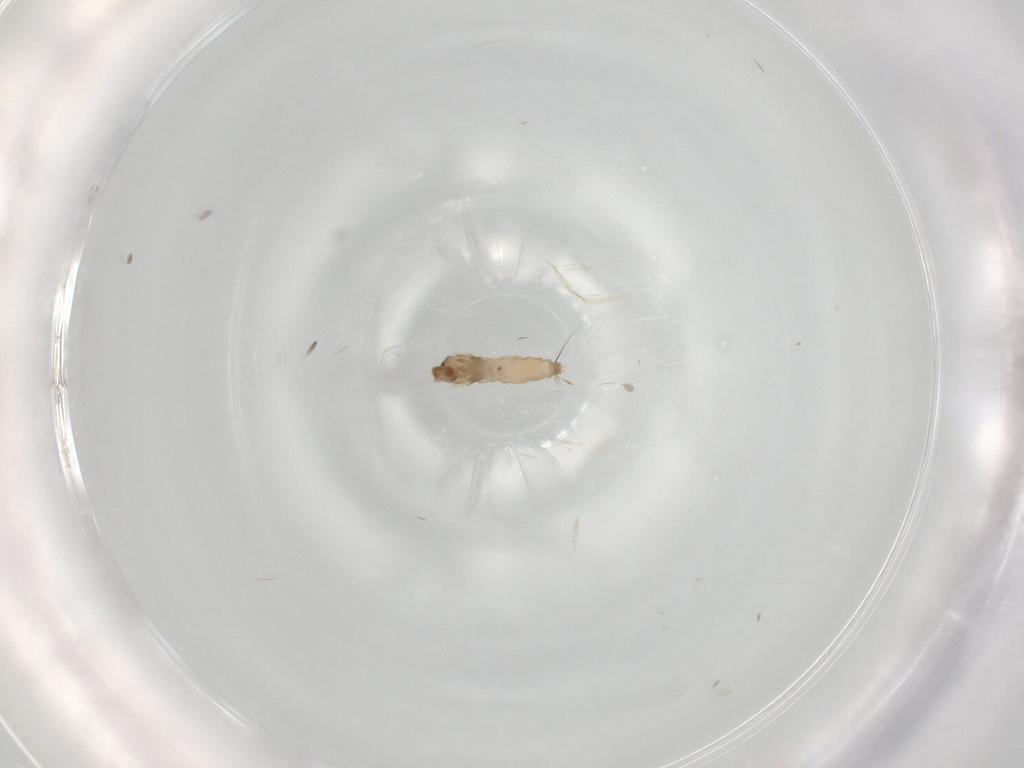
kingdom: Animalia
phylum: Arthropoda
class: Insecta
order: Diptera
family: Cecidomyiidae
